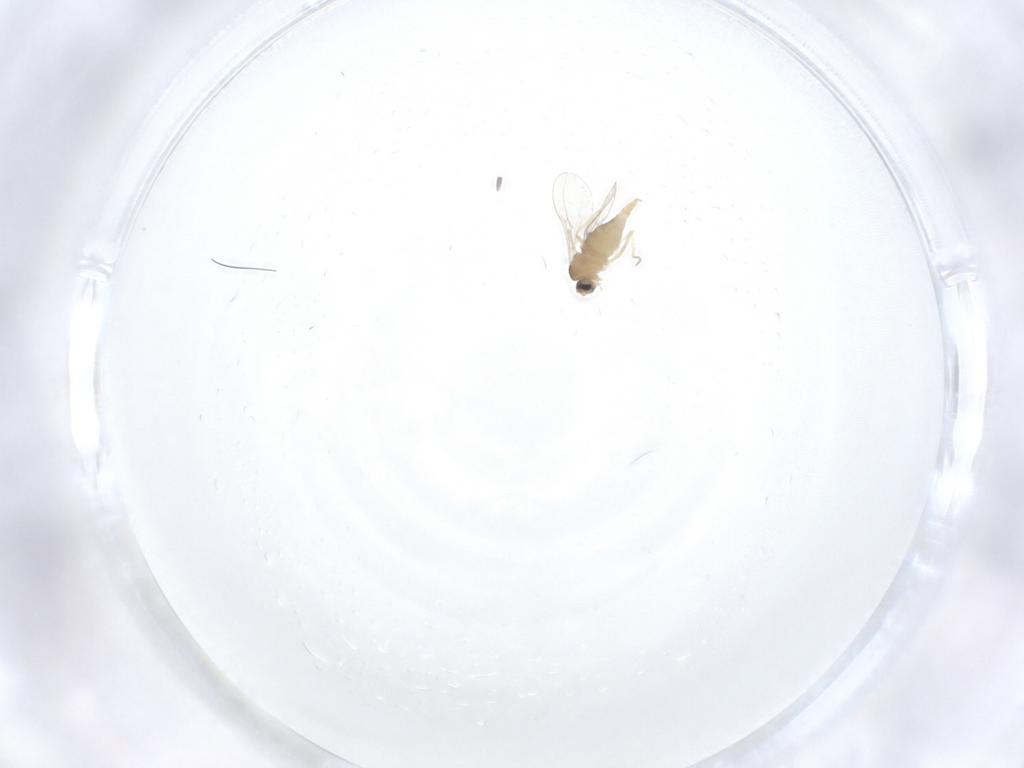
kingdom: Animalia
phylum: Arthropoda
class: Insecta
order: Diptera
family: Cecidomyiidae
